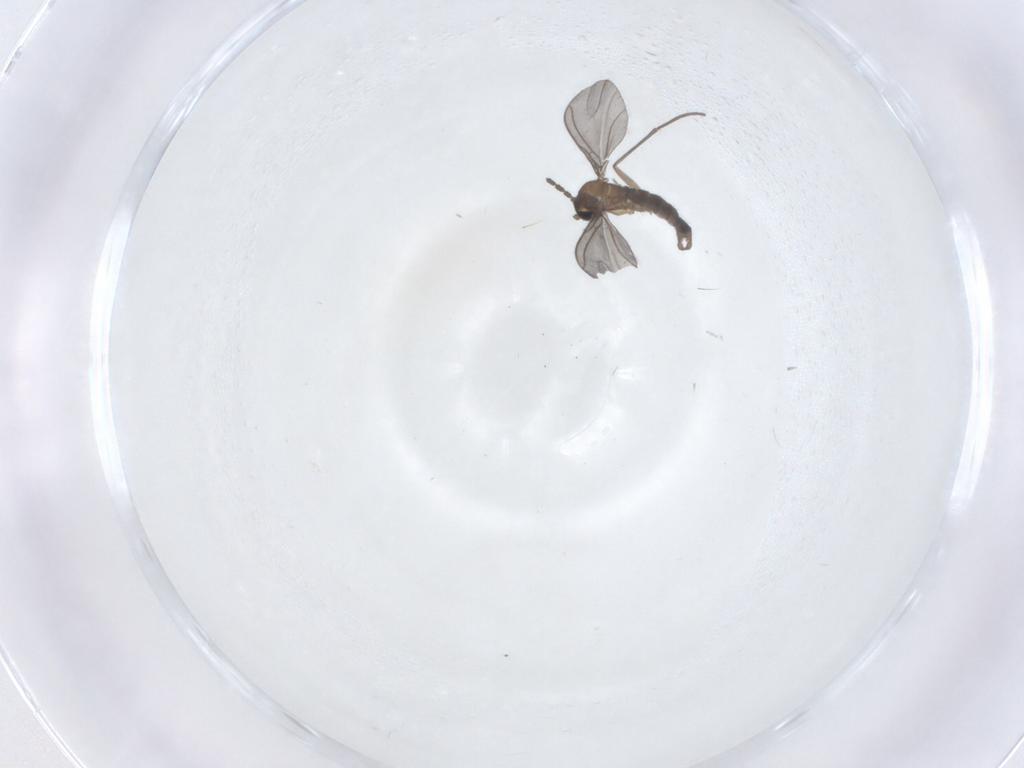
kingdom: Animalia
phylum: Arthropoda
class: Insecta
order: Diptera
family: Sciaridae
